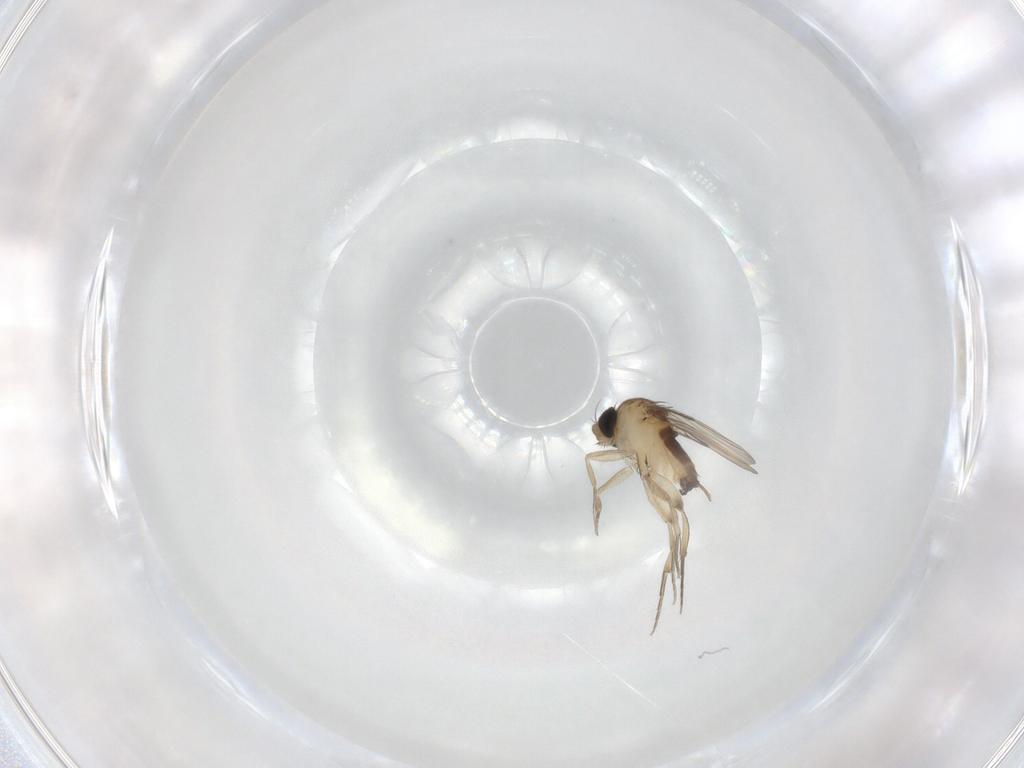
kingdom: Animalia
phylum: Arthropoda
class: Insecta
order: Diptera
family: Phoridae
